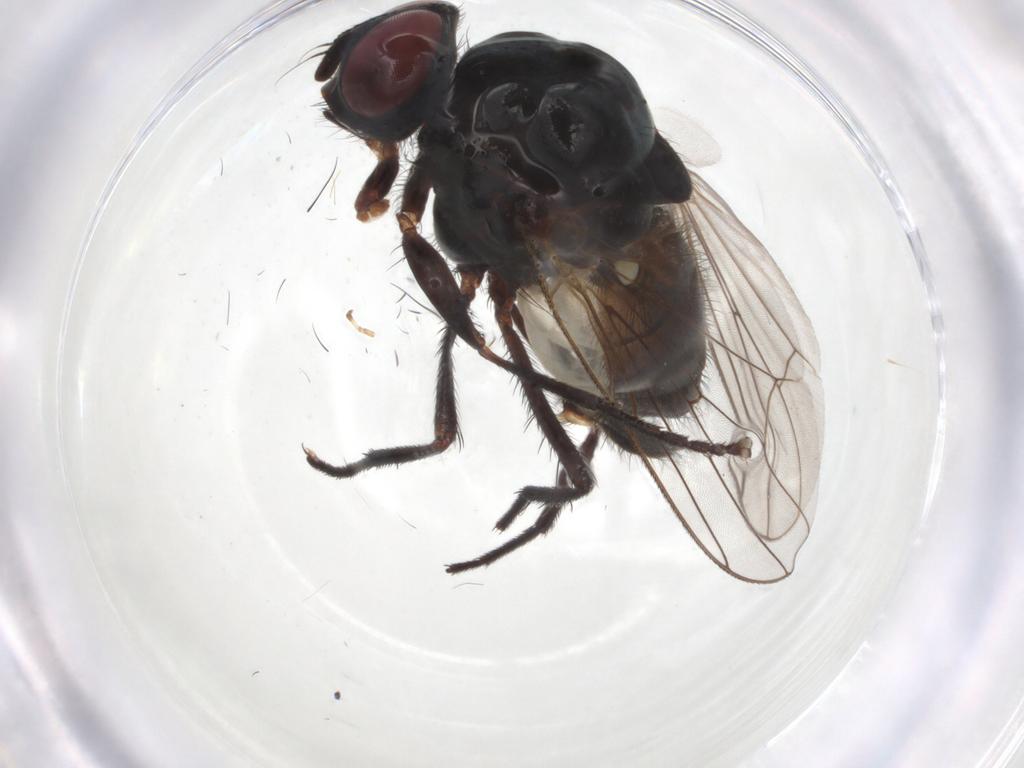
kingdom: Animalia
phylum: Arthropoda
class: Insecta
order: Diptera
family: Anthomyiidae
